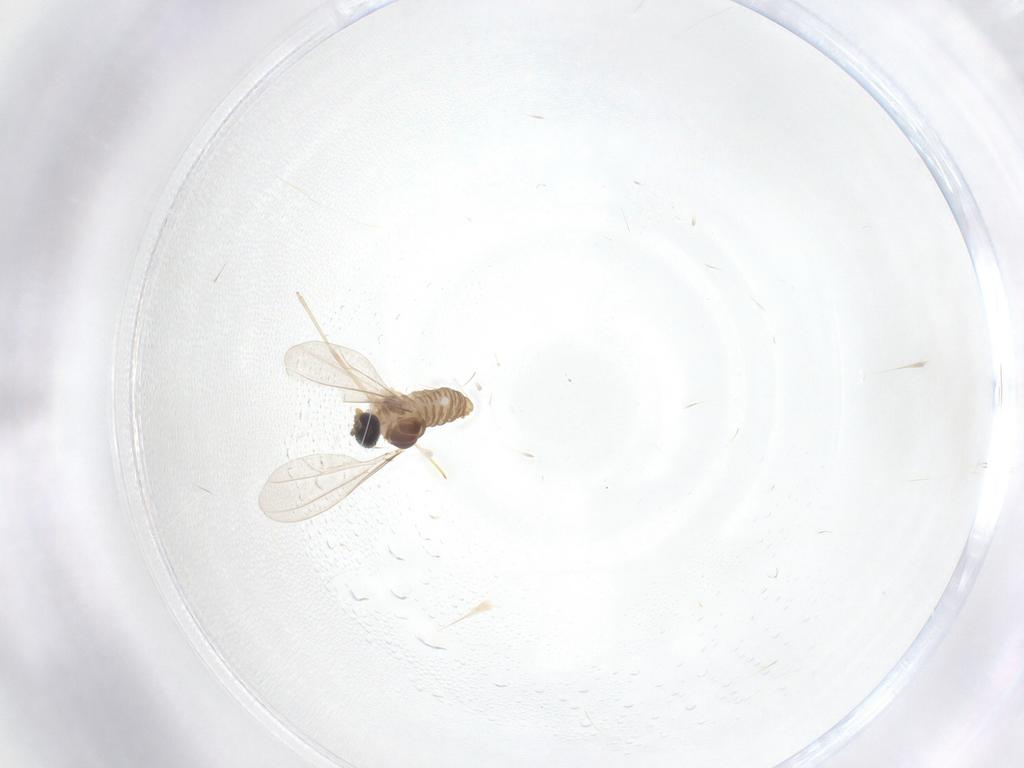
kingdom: Animalia
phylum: Arthropoda
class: Insecta
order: Diptera
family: Cecidomyiidae
